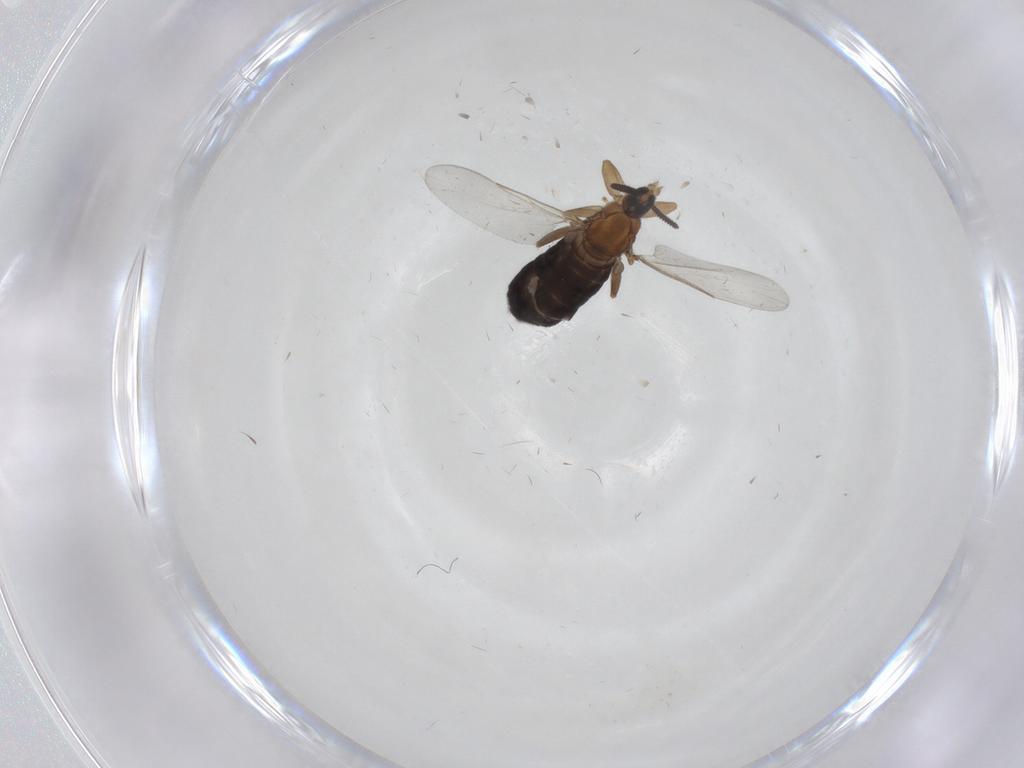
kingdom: Animalia
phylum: Arthropoda
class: Insecta
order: Diptera
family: Scatopsidae
